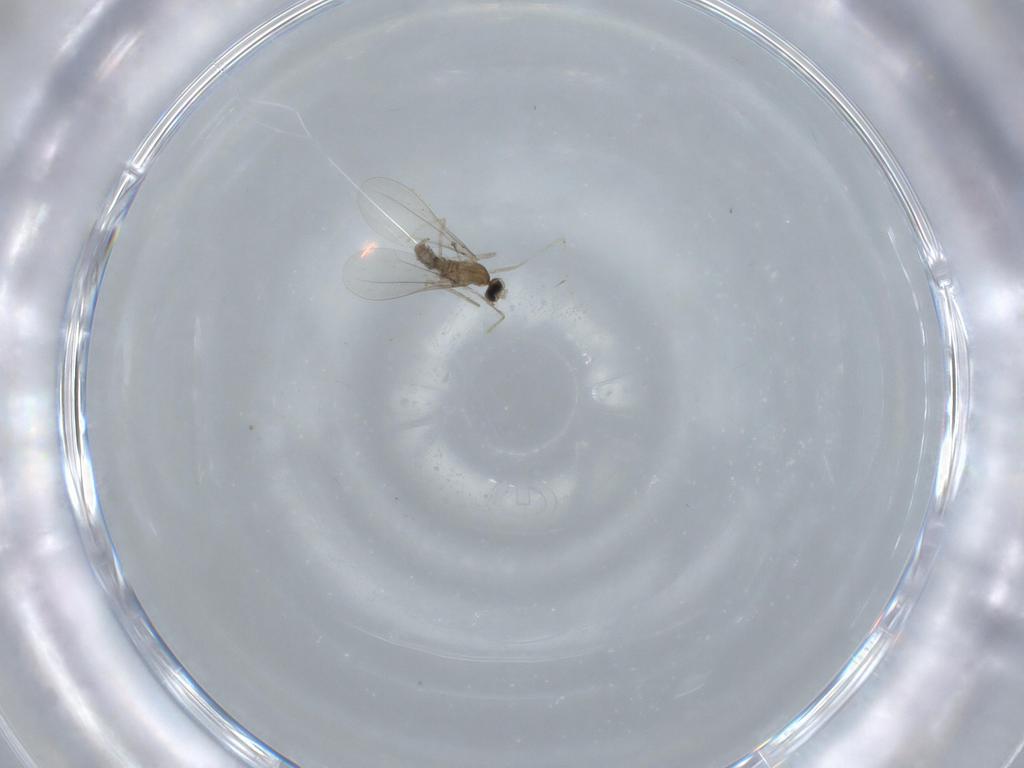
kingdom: Animalia
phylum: Arthropoda
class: Insecta
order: Diptera
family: Cecidomyiidae
